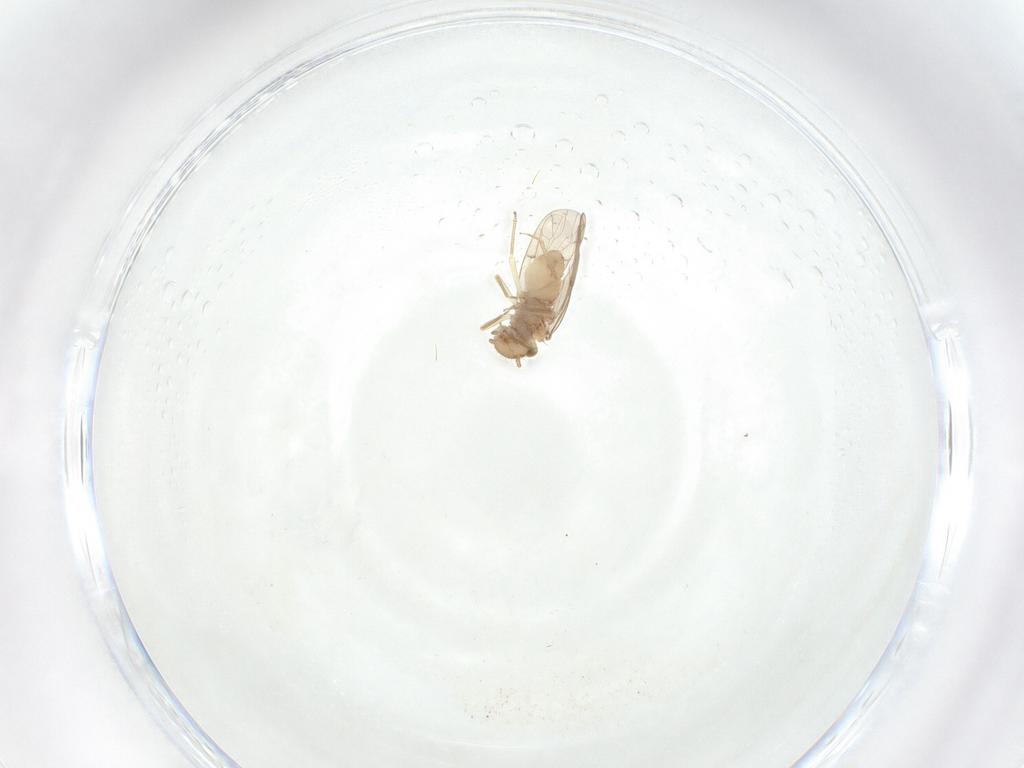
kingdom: Animalia
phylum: Arthropoda
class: Insecta
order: Psocodea
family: Ectopsocidae
